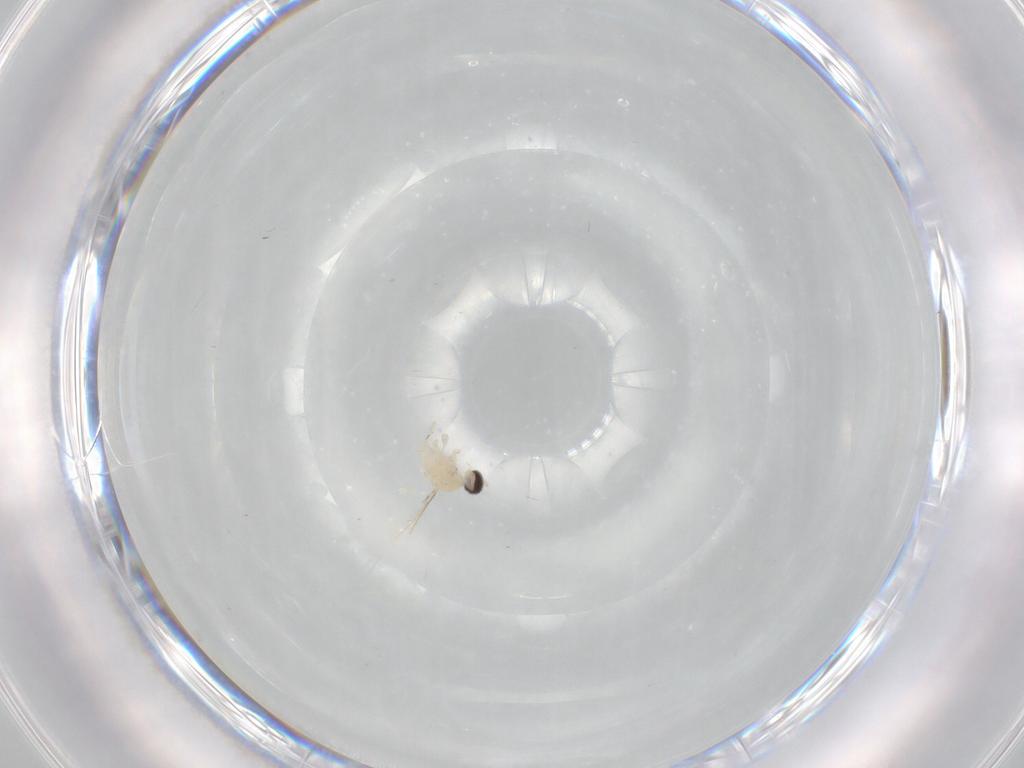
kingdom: Animalia
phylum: Arthropoda
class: Insecta
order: Diptera
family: Cecidomyiidae
